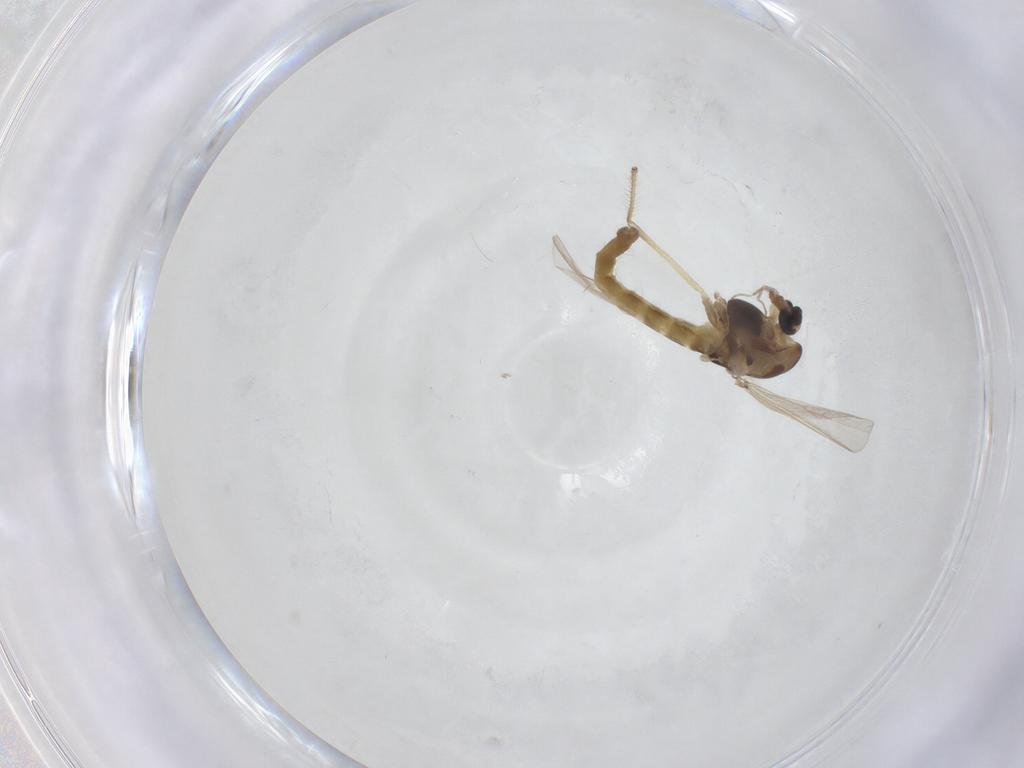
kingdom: Animalia
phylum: Arthropoda
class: Insecta
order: Diptera
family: Chironomidae
